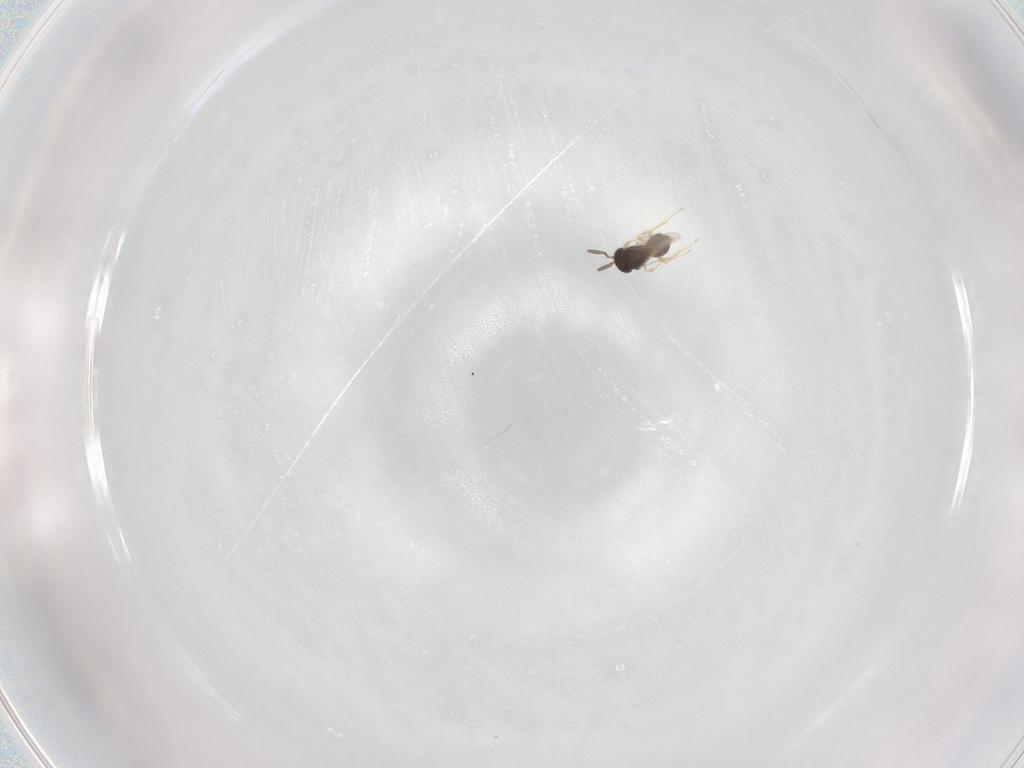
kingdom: Animalia
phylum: Arthropoda
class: Insecta
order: Hymenoptera
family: Scelionidae
